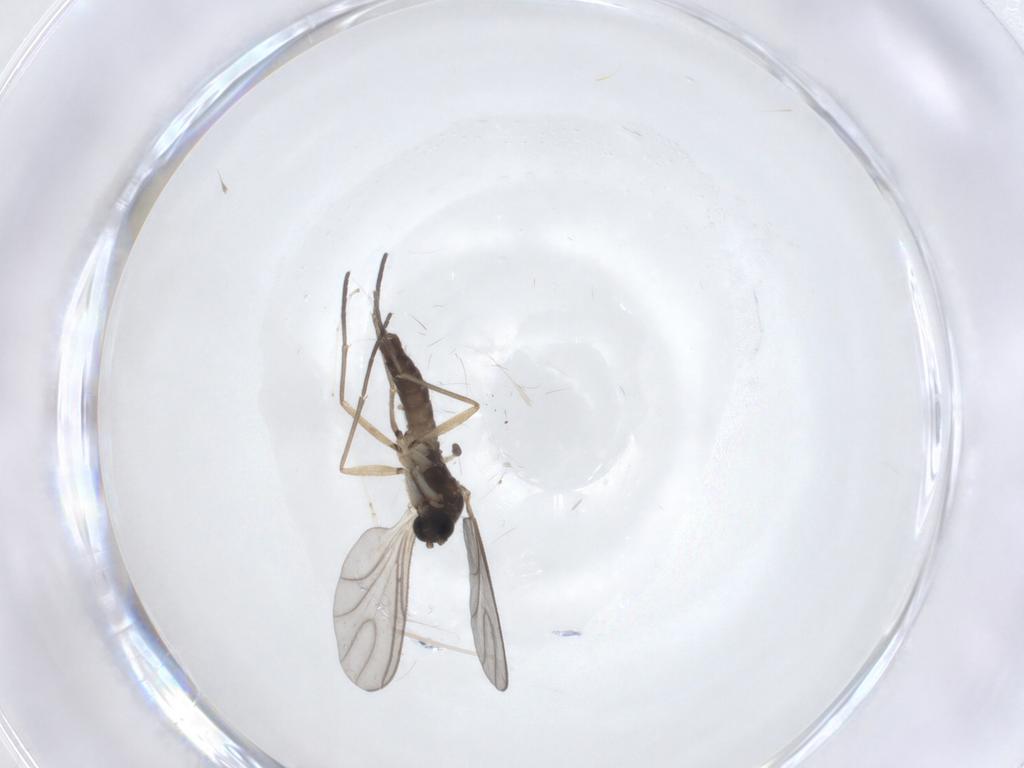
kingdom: Animalia
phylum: Arthropoda
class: Insecta
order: Diptera
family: Sciaridae
